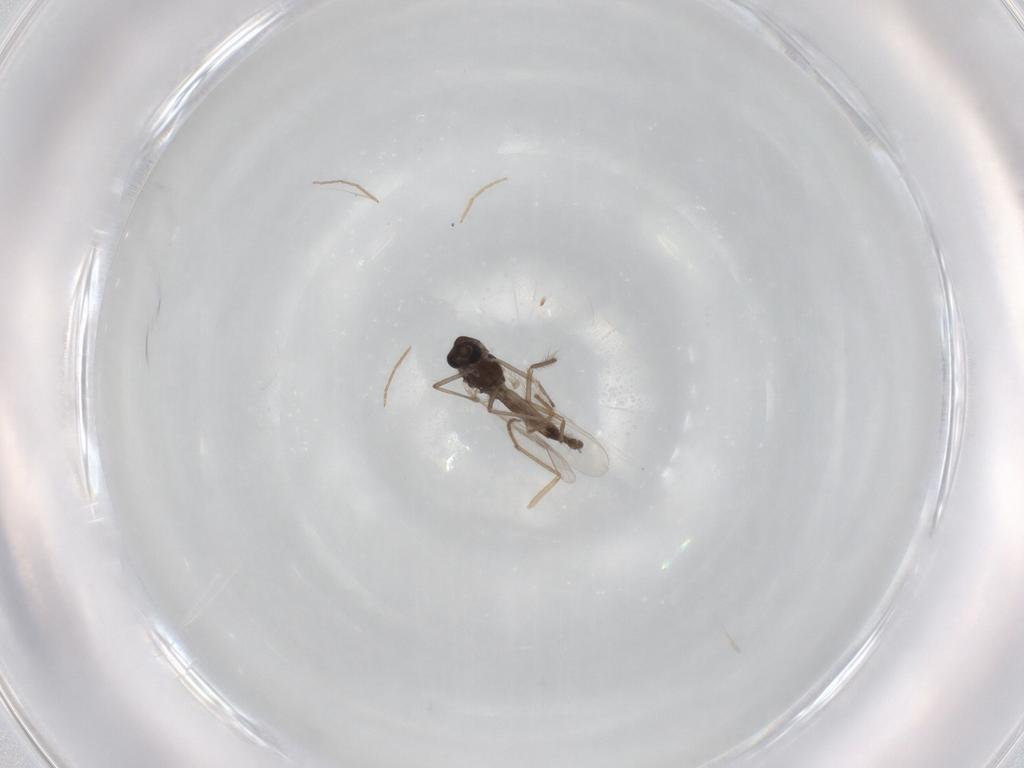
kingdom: Animalia
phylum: Arthropoda
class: Insecta
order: Diptera
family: Chironomidae
